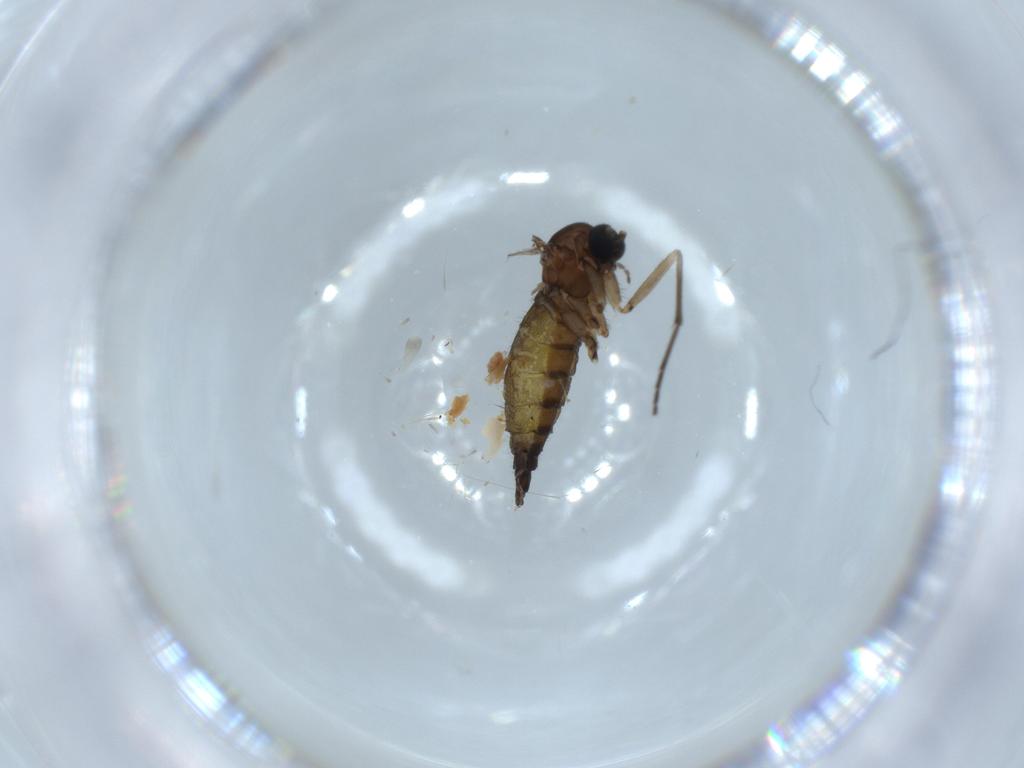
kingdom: Animalia
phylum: Arthropoda
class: Insecta
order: Diptera
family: Sciaridae
